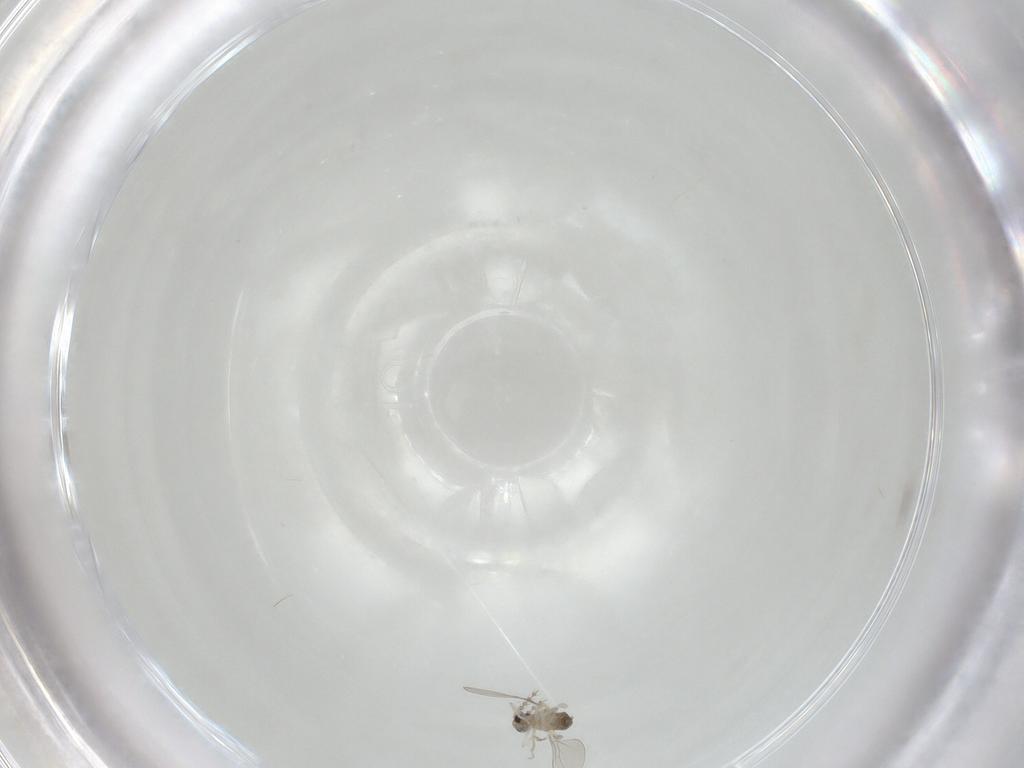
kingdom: Animalia
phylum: Arthropoda
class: Insecta
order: Diptera
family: Cecidomyiidae
